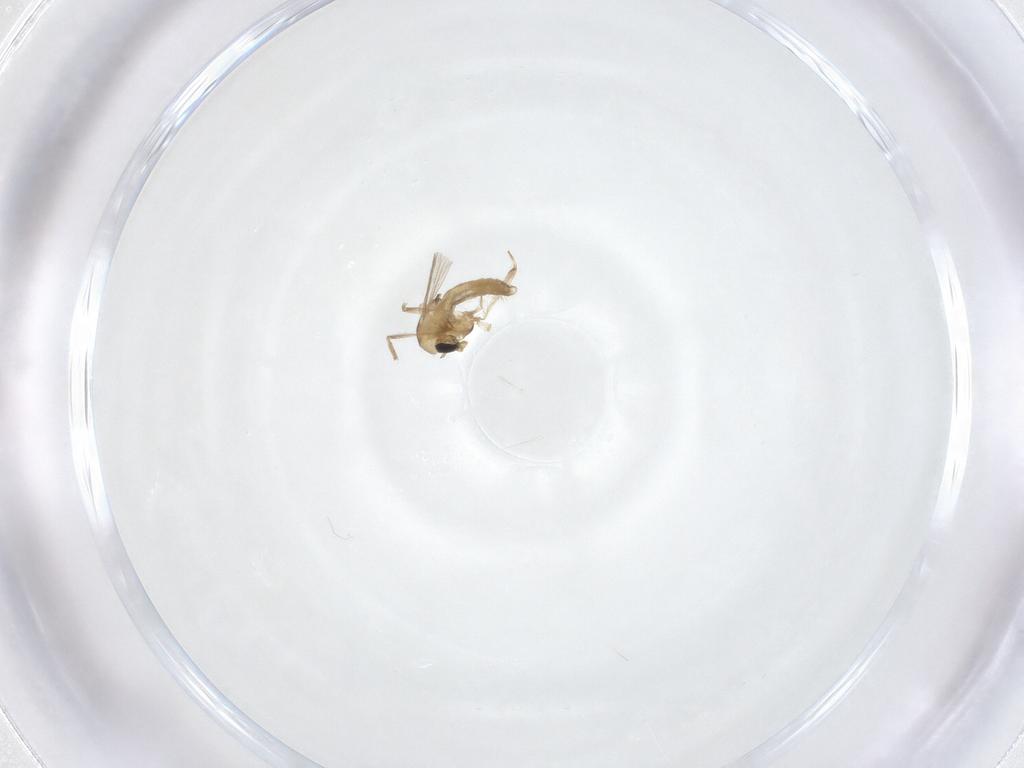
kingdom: Animalia
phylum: Arthropoda
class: Insecta
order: Diptera
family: Chironomidae
